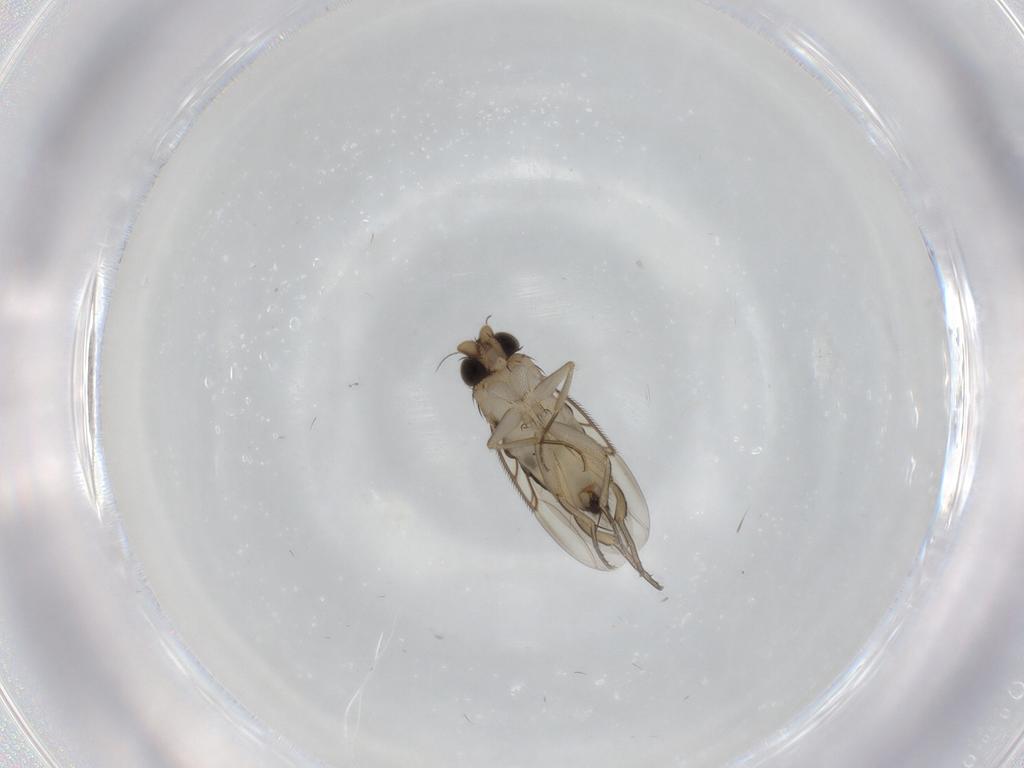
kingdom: Animalia
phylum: Arthropoda
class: Insecta
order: Diptera
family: Phoridae
